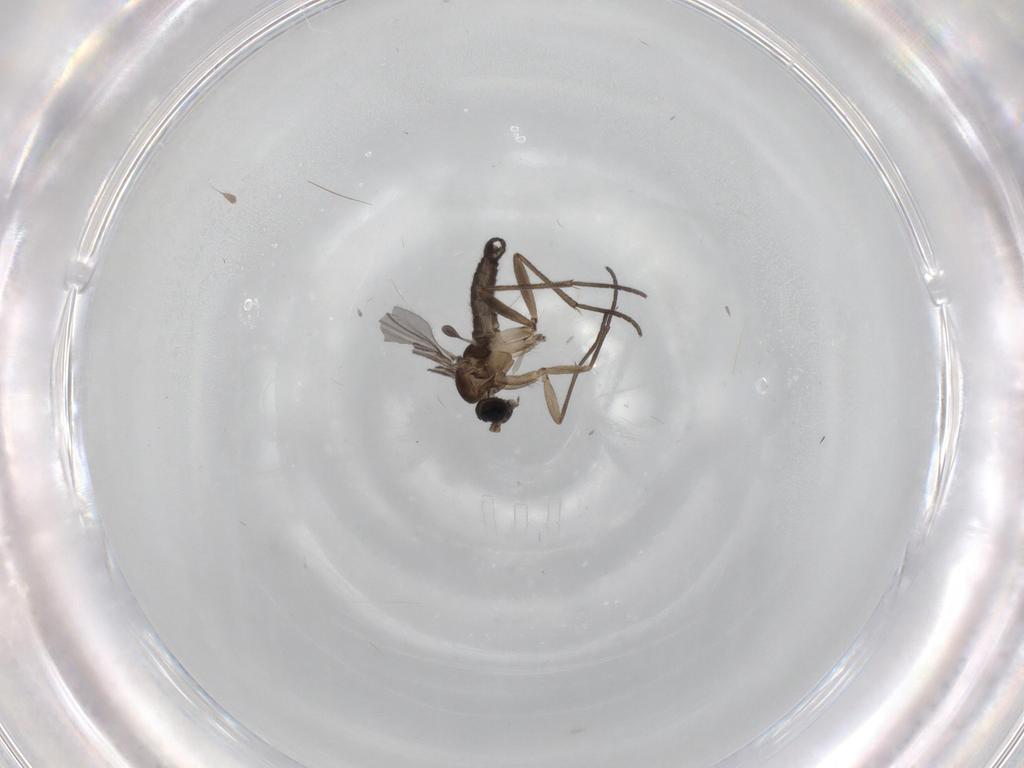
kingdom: Animalia
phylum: Arthropoda
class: Insecta
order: Diptera
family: Sciaridae
